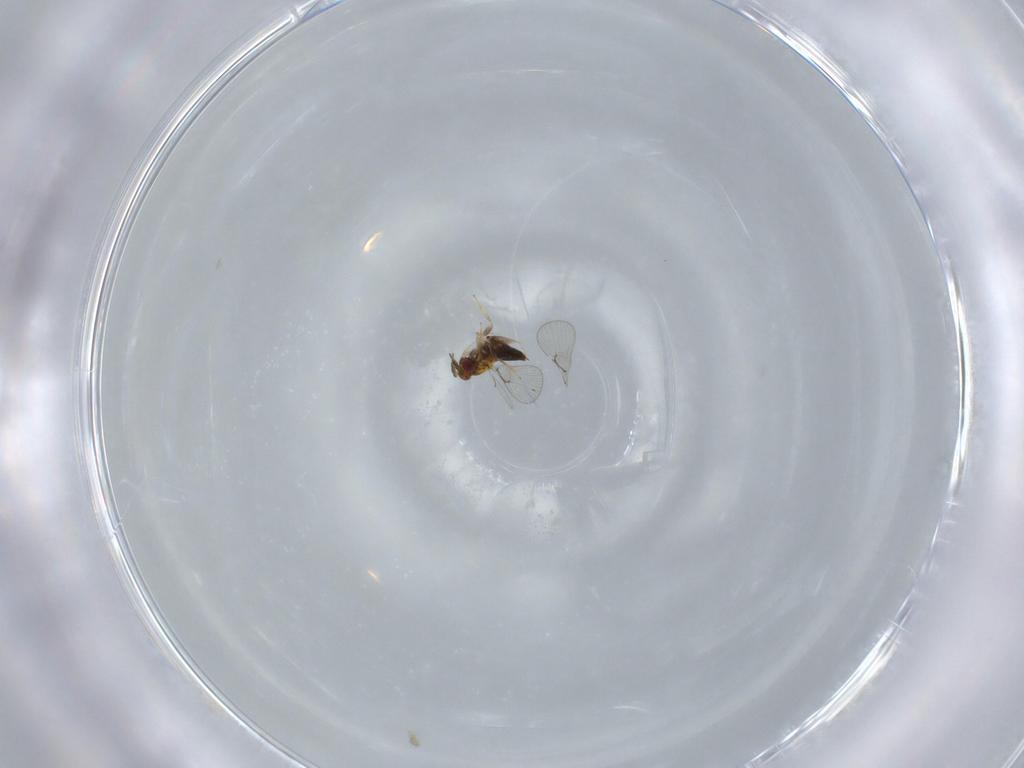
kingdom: Animalia
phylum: Arthropoda
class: Insecta
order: Hymenoptera
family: Trichogrammatidae
